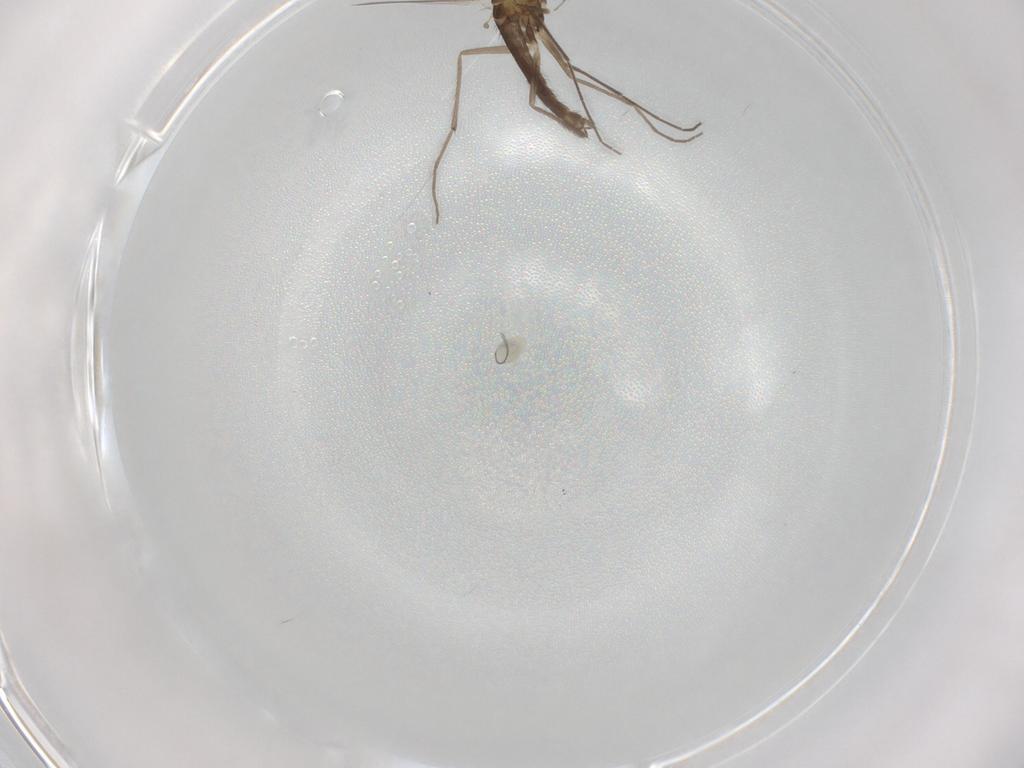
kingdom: Animalia
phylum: Arthropoda
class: Insecta
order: Diptera
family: Chironomidae
